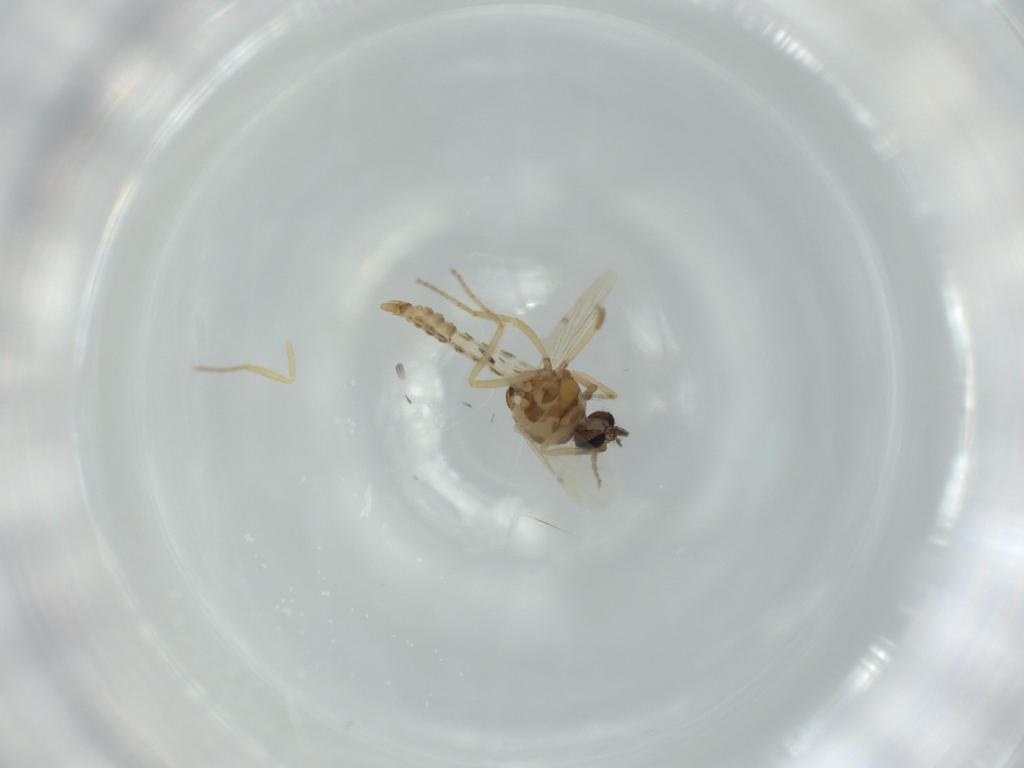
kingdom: Animalia
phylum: Arthropoda
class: Insecta
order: Diptera
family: Ceratopogonidae
